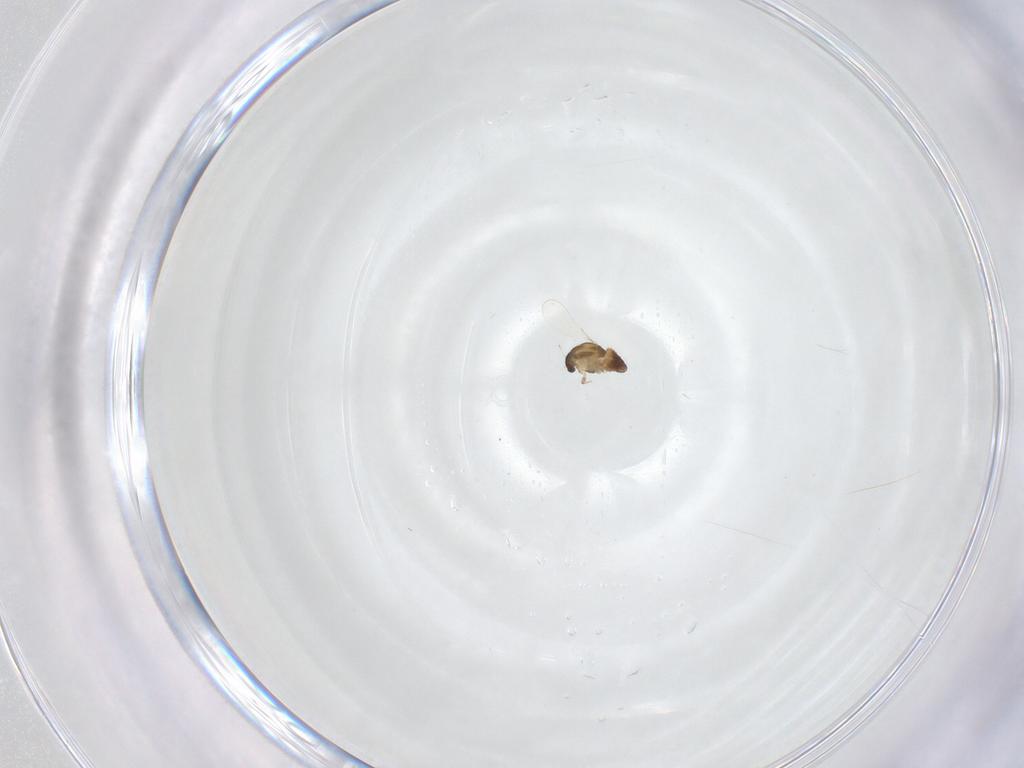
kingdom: Animalia
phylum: Arthropoda
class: Insecta
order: Diptera
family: Chironomidae
